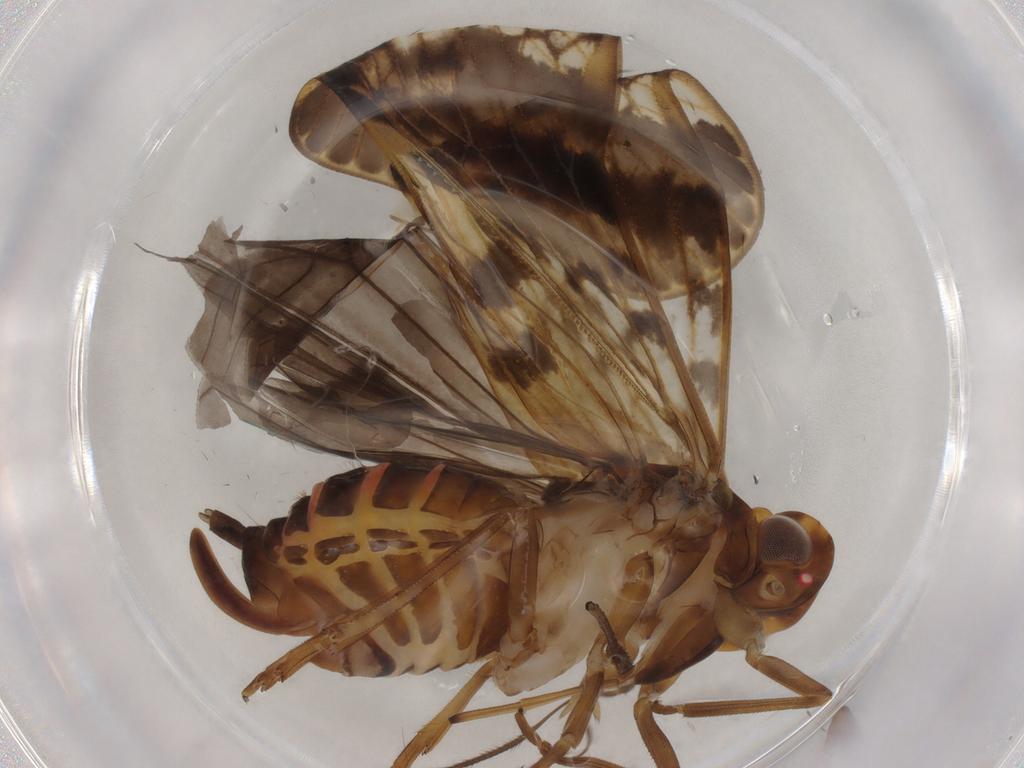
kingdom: Animalia
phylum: Arthropoda
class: Insecta
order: Hemiptera
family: Cixiidae
